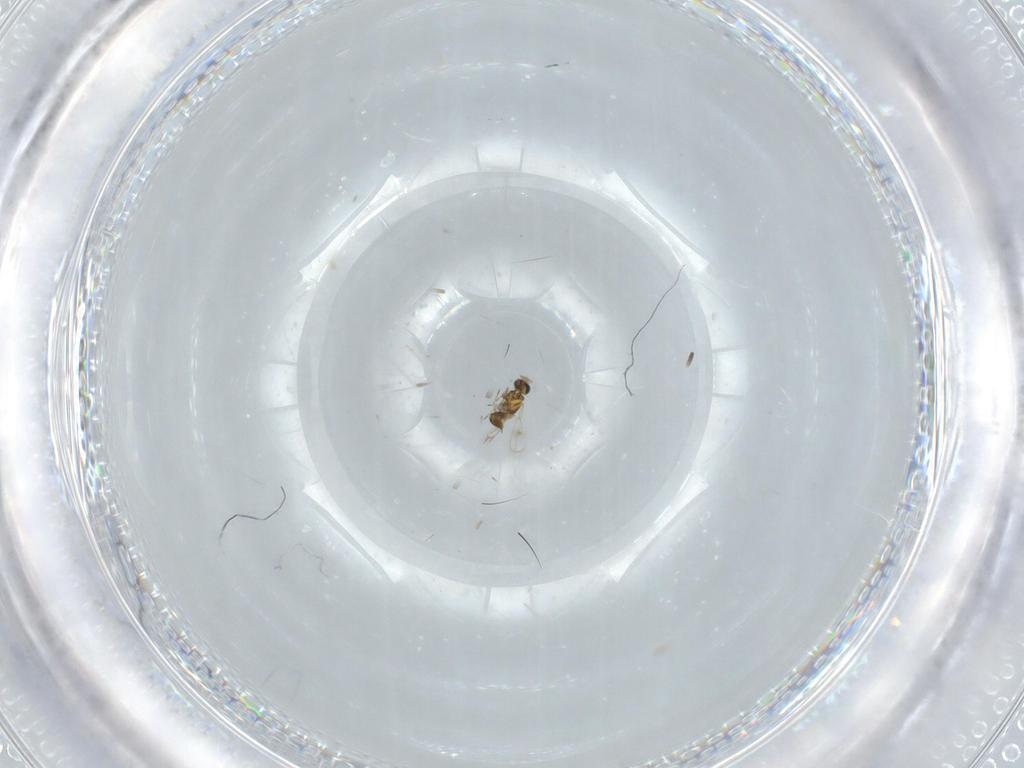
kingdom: Animalia
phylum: Arthropoda
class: Insecta
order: Hymenoptera
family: Trichogrammatidae
